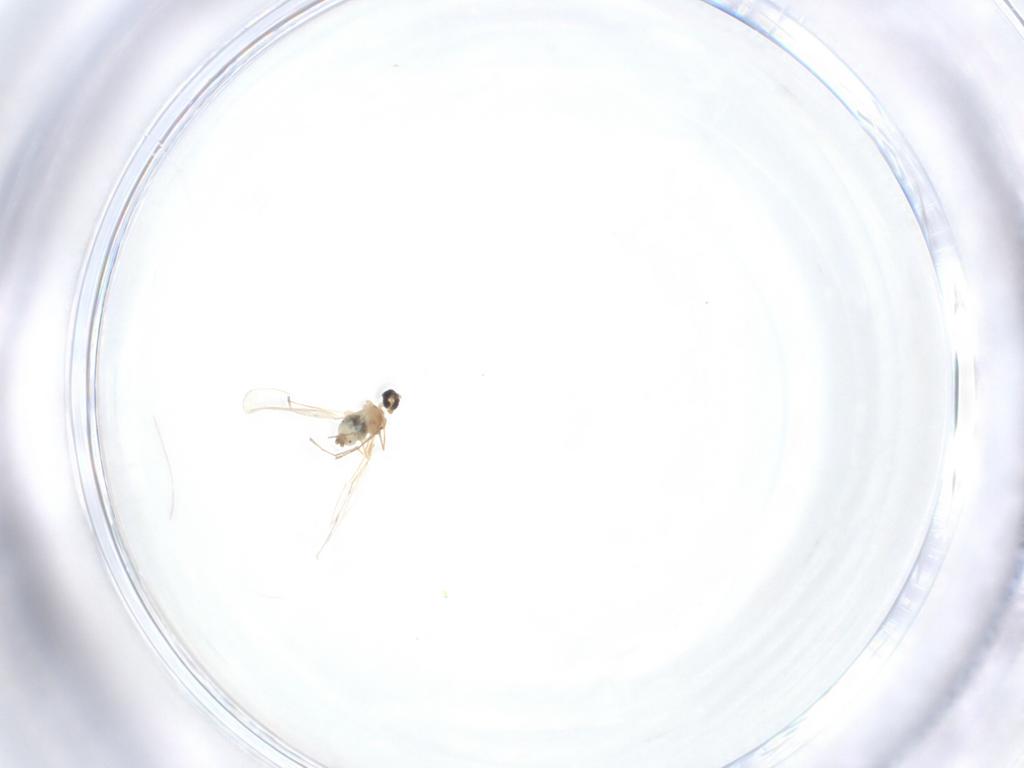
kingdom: Animalia
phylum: Arthropoda
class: Insecta
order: Diptera
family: Cecidomyiidae
